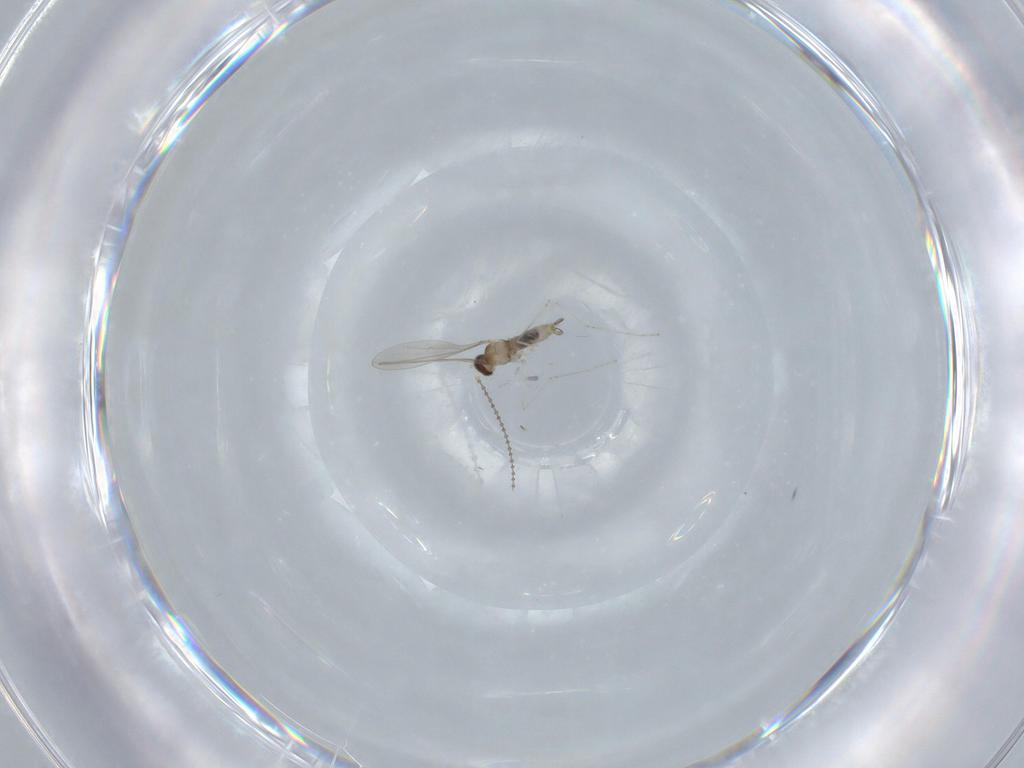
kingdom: Animalia
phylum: Arthropoda
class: Insecta
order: Diptera
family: Cecidomyiidae
